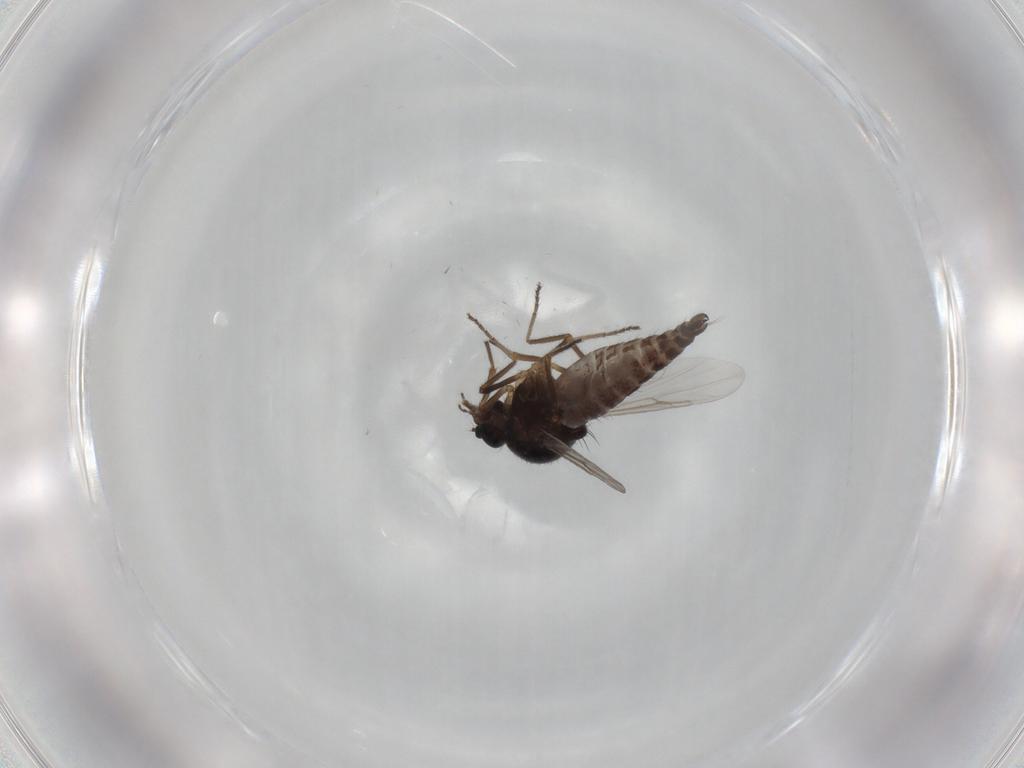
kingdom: Animalia
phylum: Arthropoda
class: Insecta
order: Diptera
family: Ceratopogonidae
